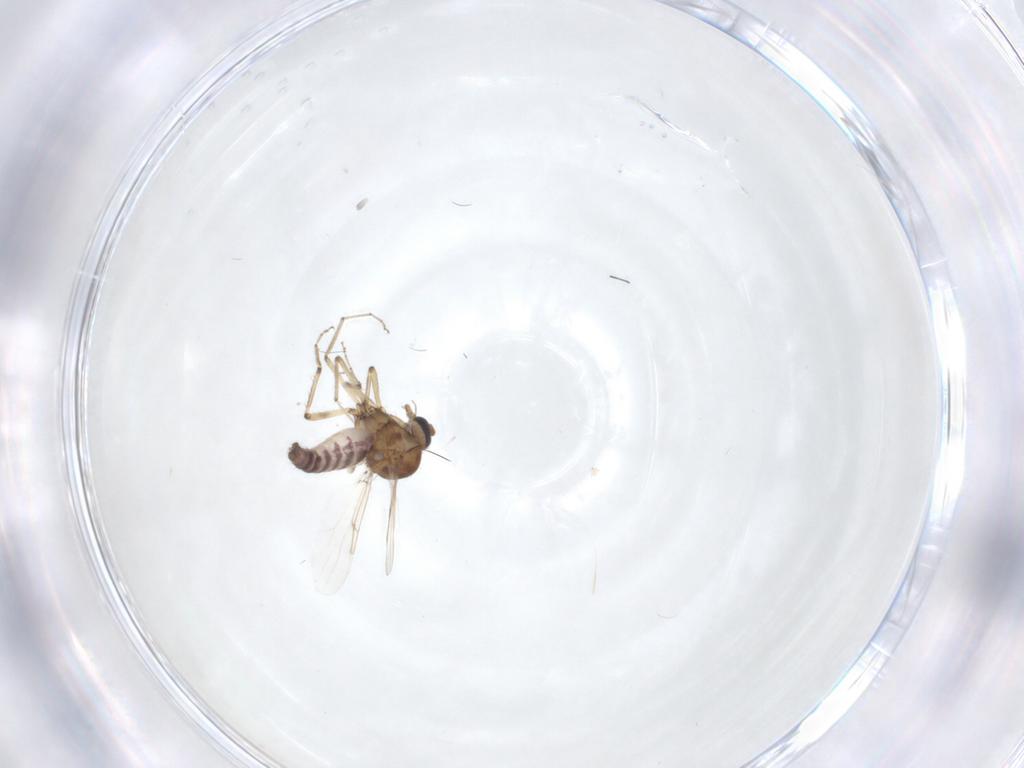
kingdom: Animalia
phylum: Arthropoda
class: Insecta
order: Diptera
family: Ceratopogonidae
